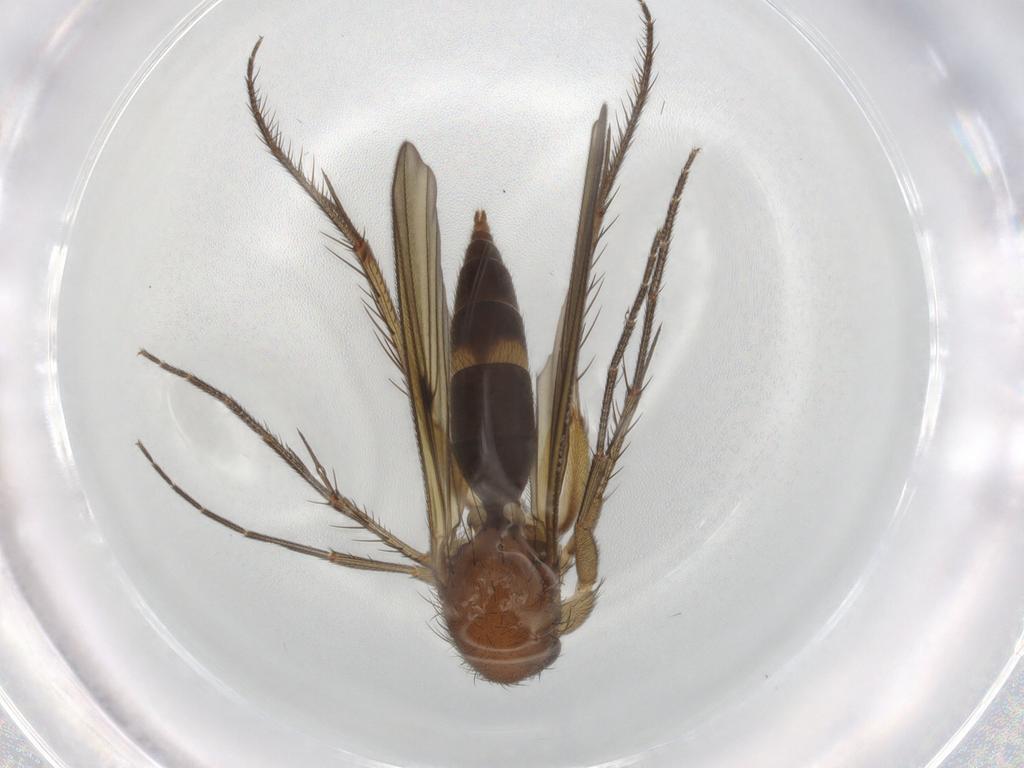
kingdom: Animalia
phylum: Arthropoda
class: Insecta
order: Diptera
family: Phoridae
